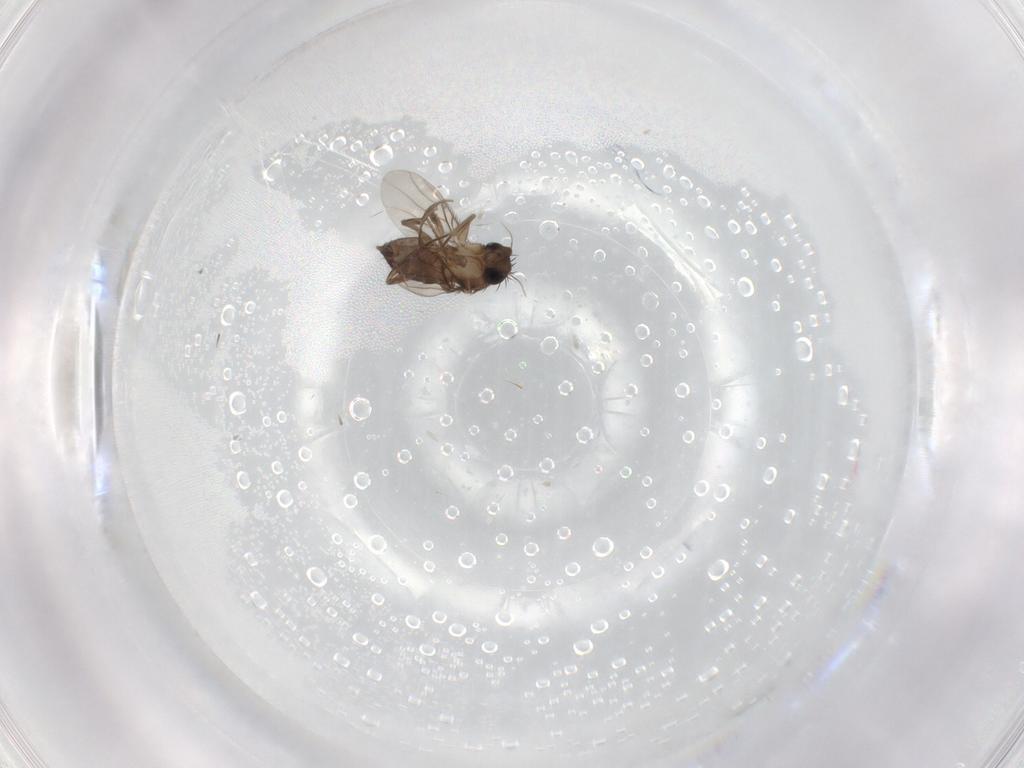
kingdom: Animalia
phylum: Arthropoda
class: Insecta
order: Diptera
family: Phoridae
